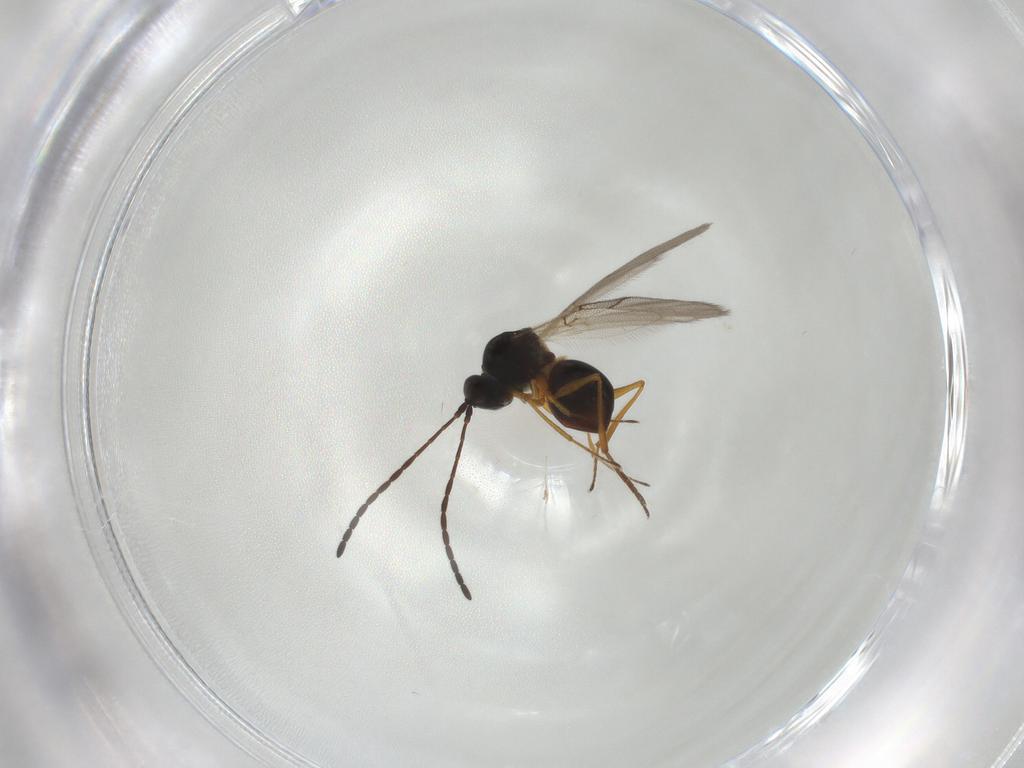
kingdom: Animalia
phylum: Arthropoda
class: Insecta
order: Hymenoptera
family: Figitidae
